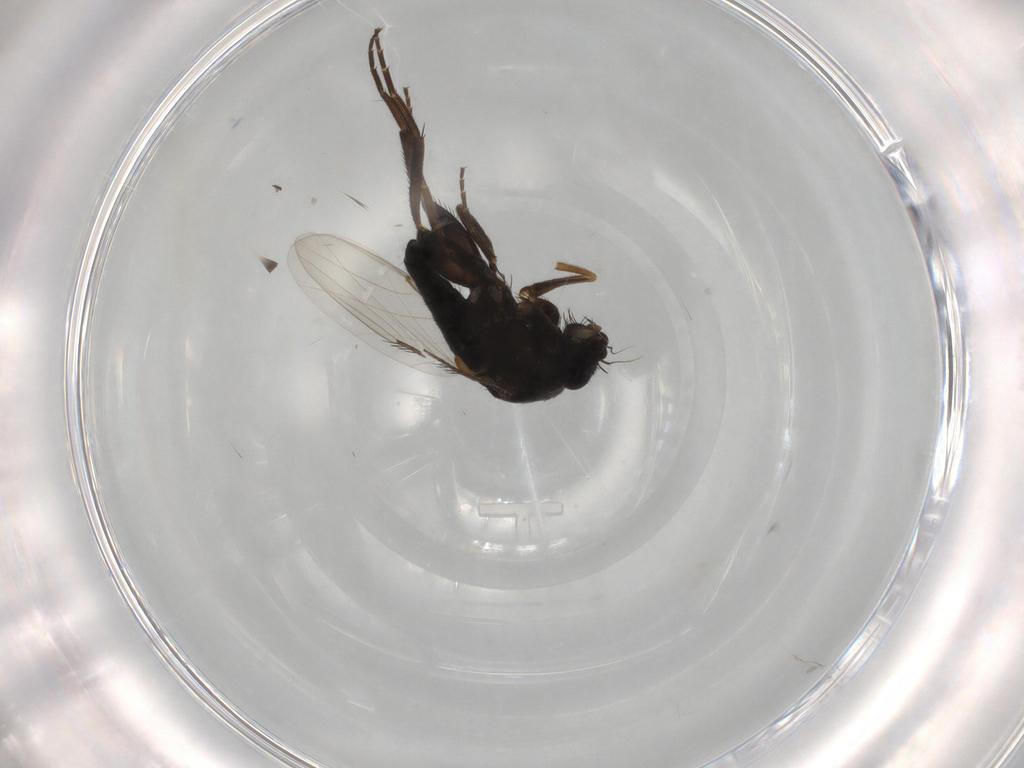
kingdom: Animalia
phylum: Arthropoda
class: Insecta
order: Diptera
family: Phoridae
